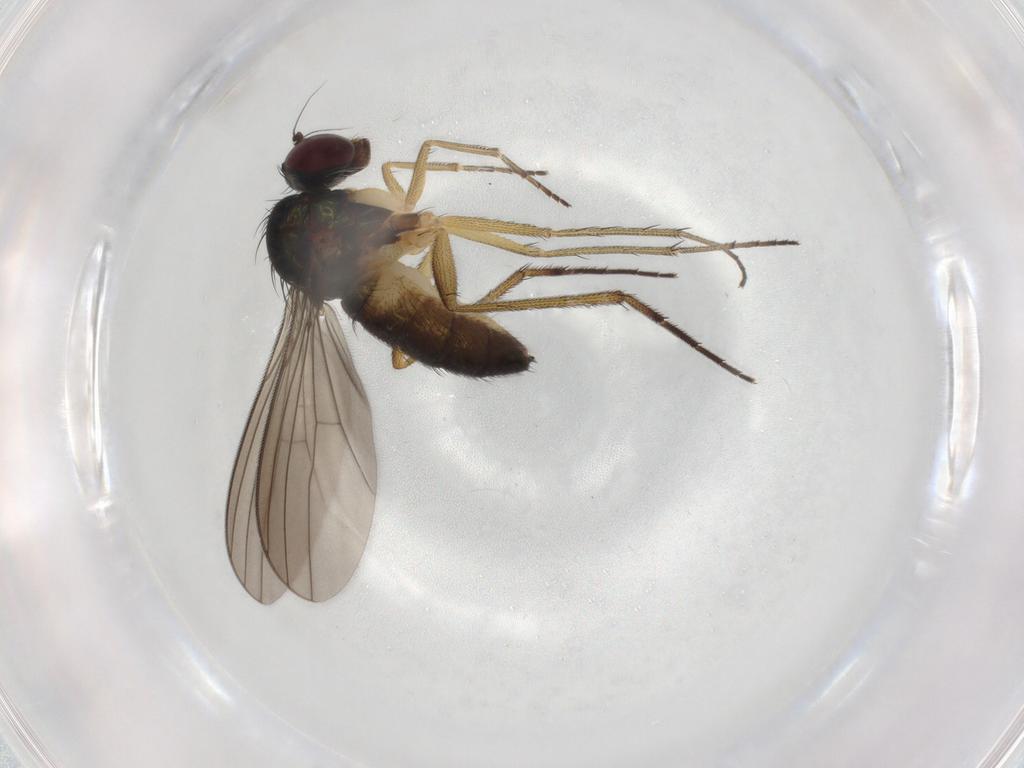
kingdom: Animalia
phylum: Arthropoda
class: Insecta
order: Diptera
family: Dolichopodidae
